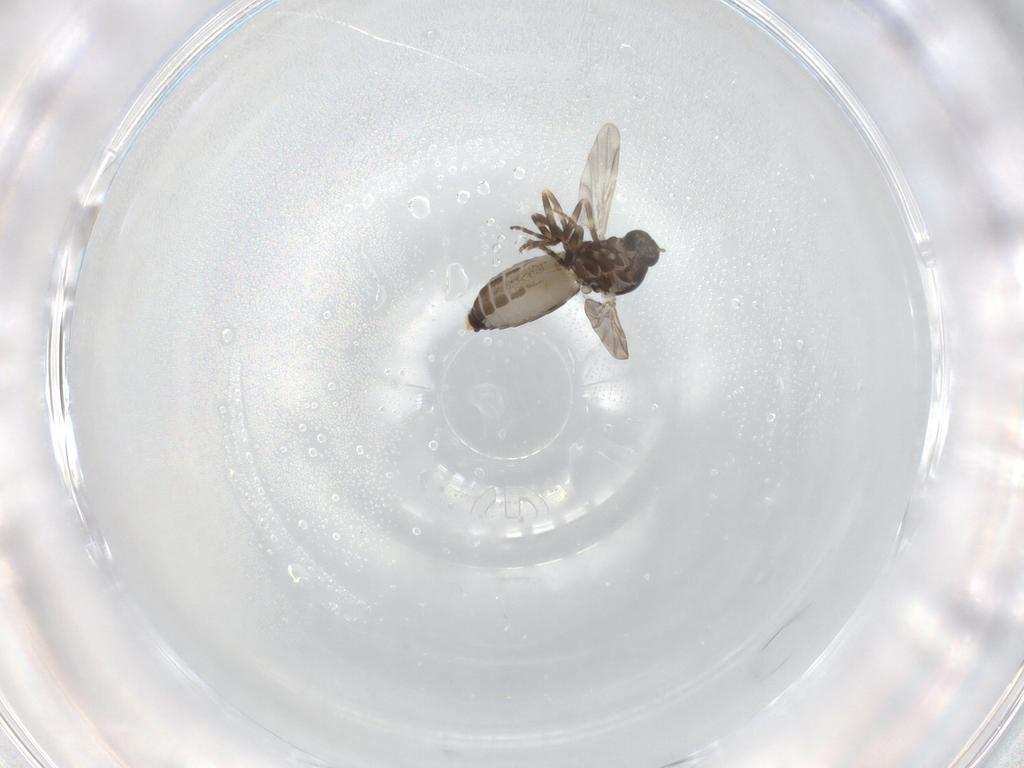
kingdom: Animalia
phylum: Arthropoda
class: Insecta
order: Diptera
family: Ceratopogonidae
